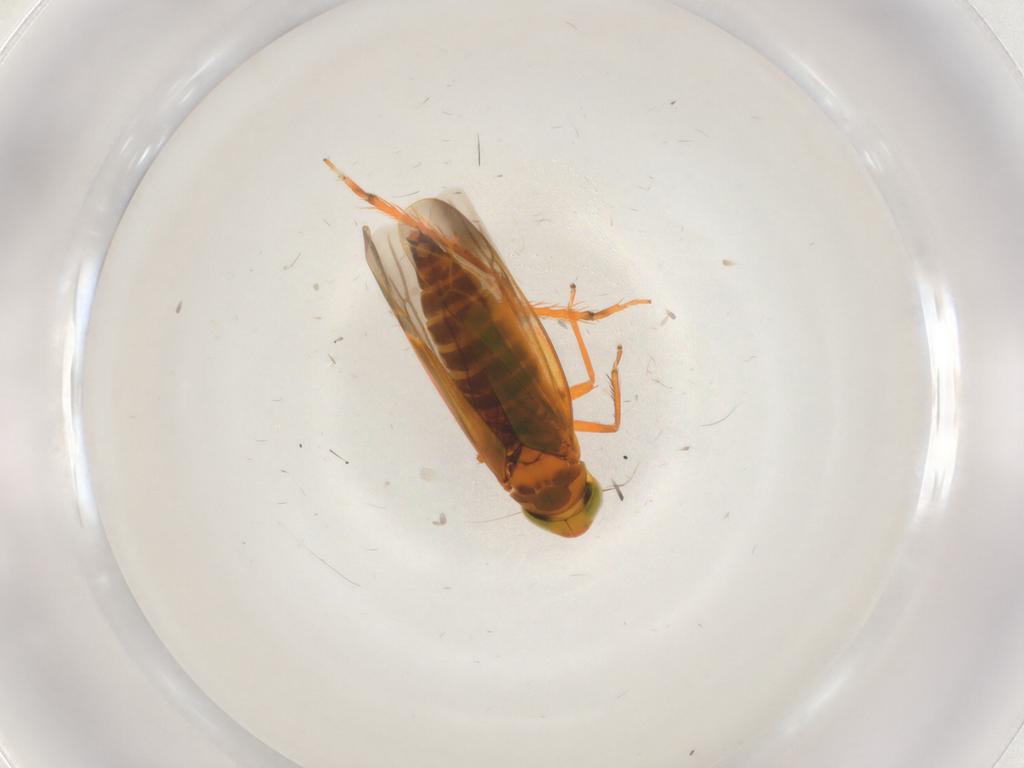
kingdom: Animalia
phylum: Arthropoda
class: Insecta
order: Hemiptera
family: Cicadellidae
